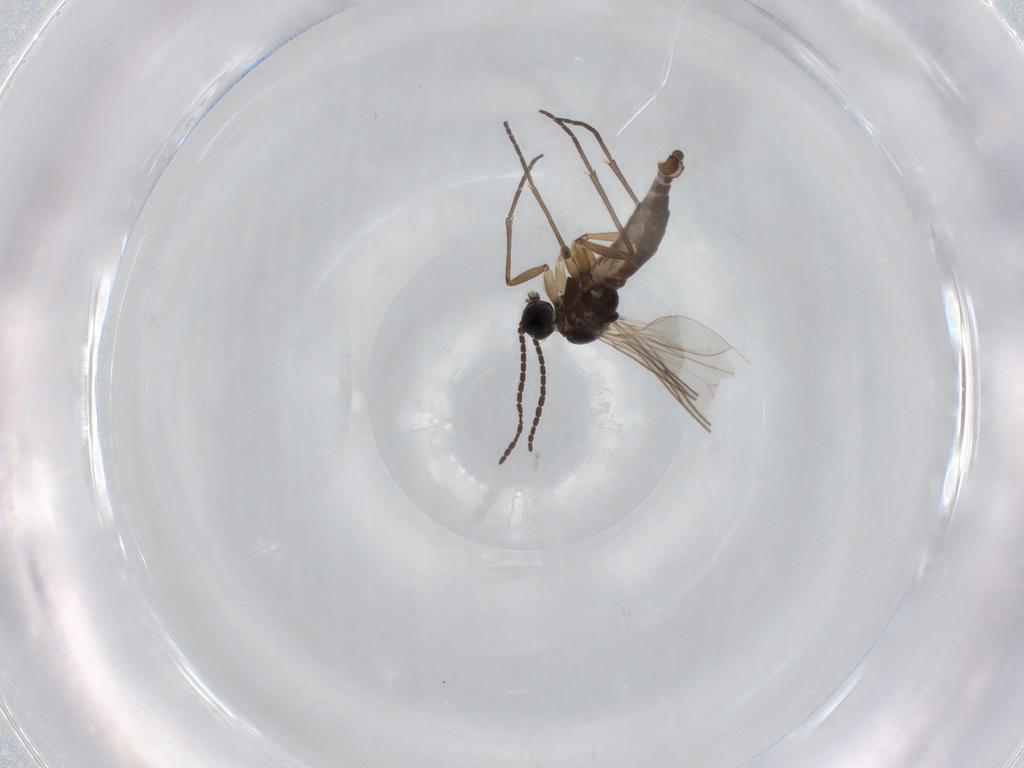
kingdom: Animalia
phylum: Arthropoda
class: Insecta
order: Diptera
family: Sciaridae
